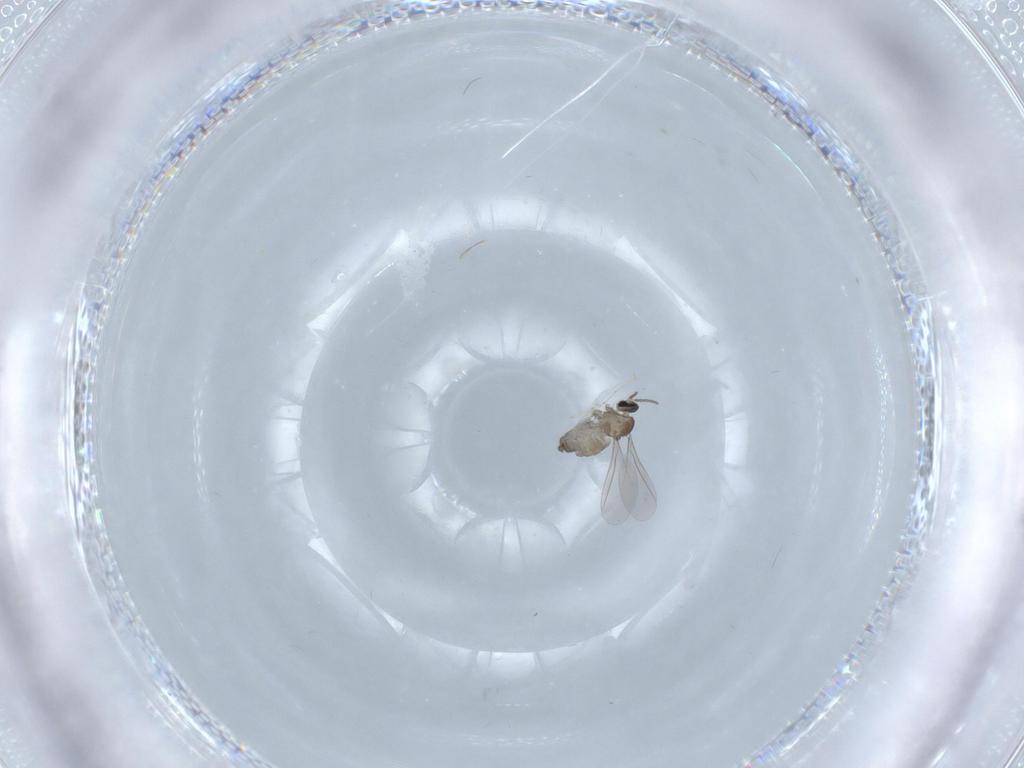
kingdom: Animalia
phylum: Arthropoda
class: Insecta
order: Diptera
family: Cecidomyiidae
